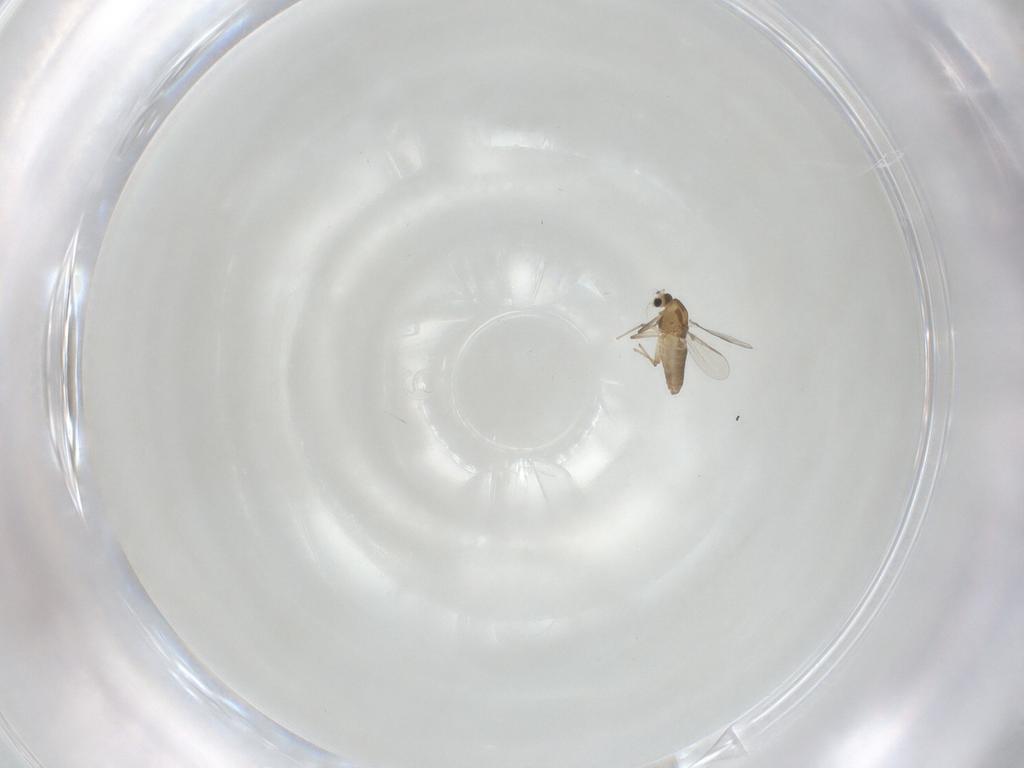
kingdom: Animalia
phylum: Arthropoda
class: Insecta
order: Diptera
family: Chironomidae
